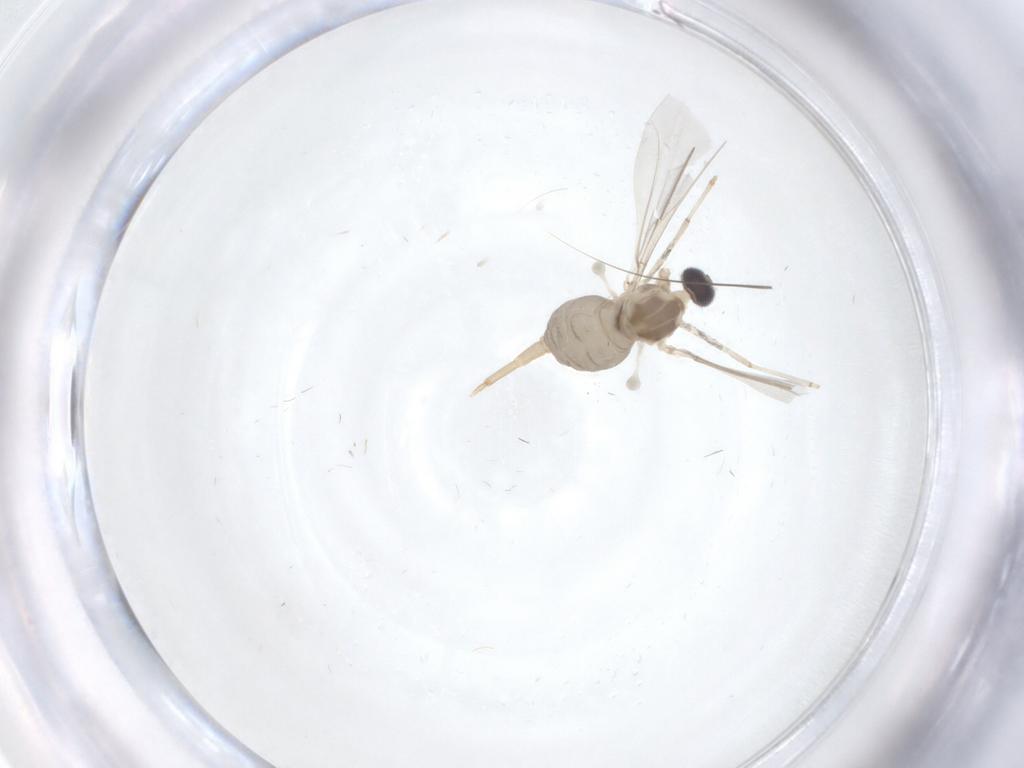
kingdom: Animalia
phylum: Arthropoda
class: Insecta
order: Diptera
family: Cecidomyiidae
